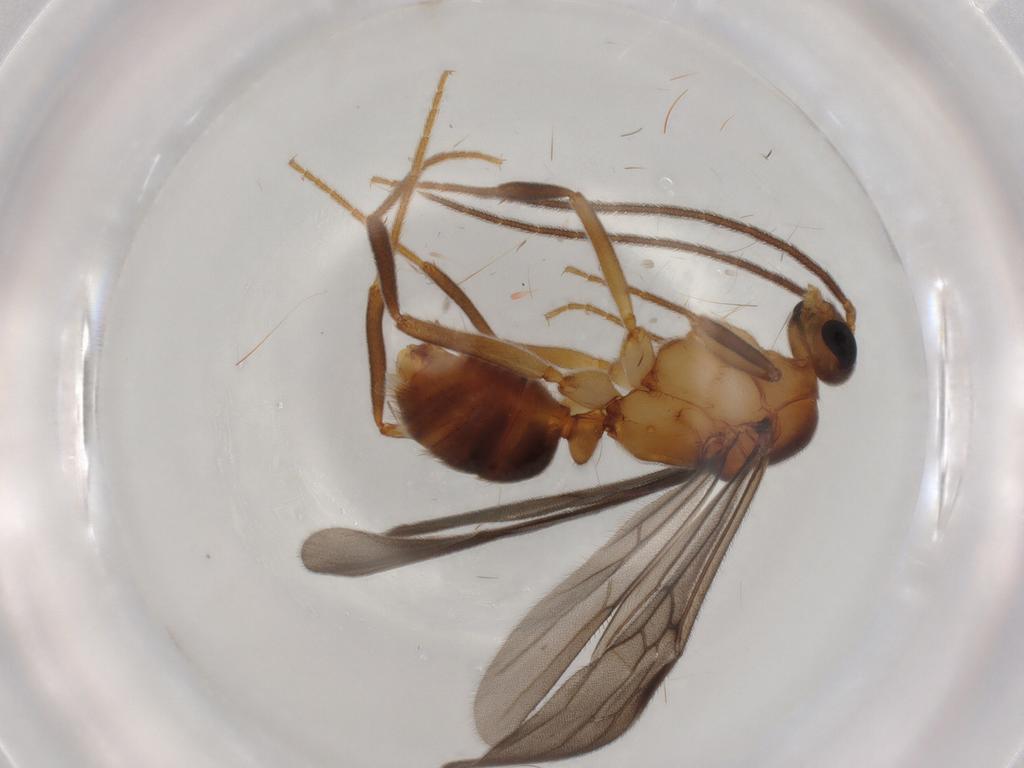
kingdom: Animalia
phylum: Arthropoda
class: Insecta
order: Hymenoptera
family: Formicidae
